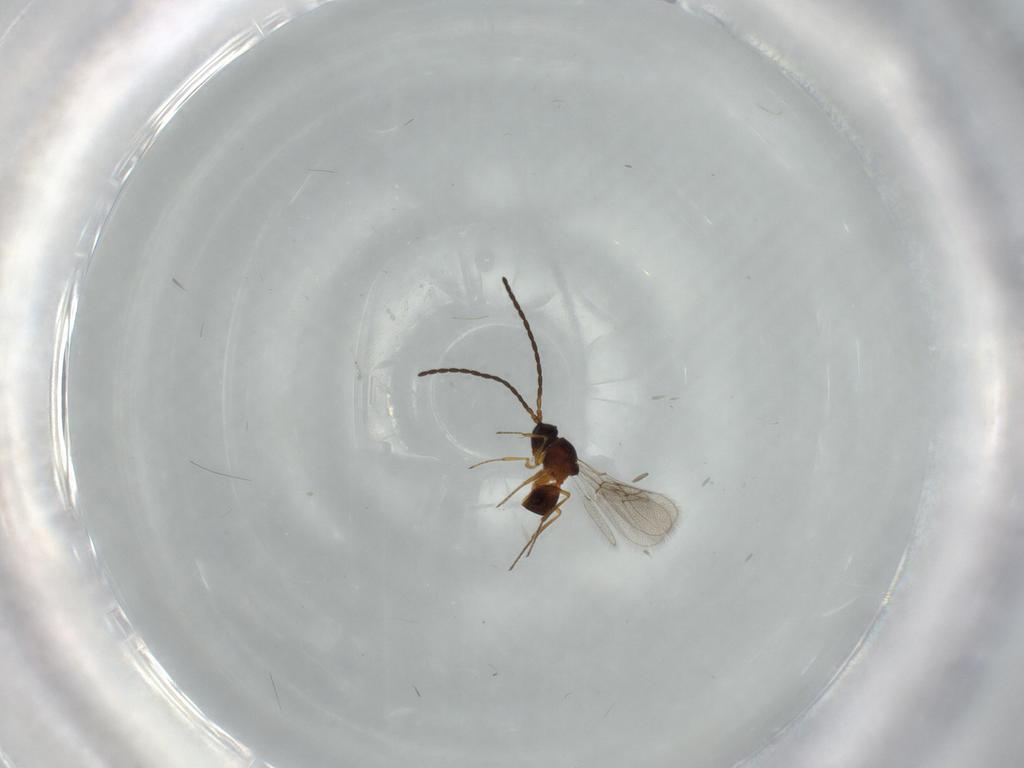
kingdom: Animalia
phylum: Arthropoda
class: Insecta
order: Hymenoptera
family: Figitidae
